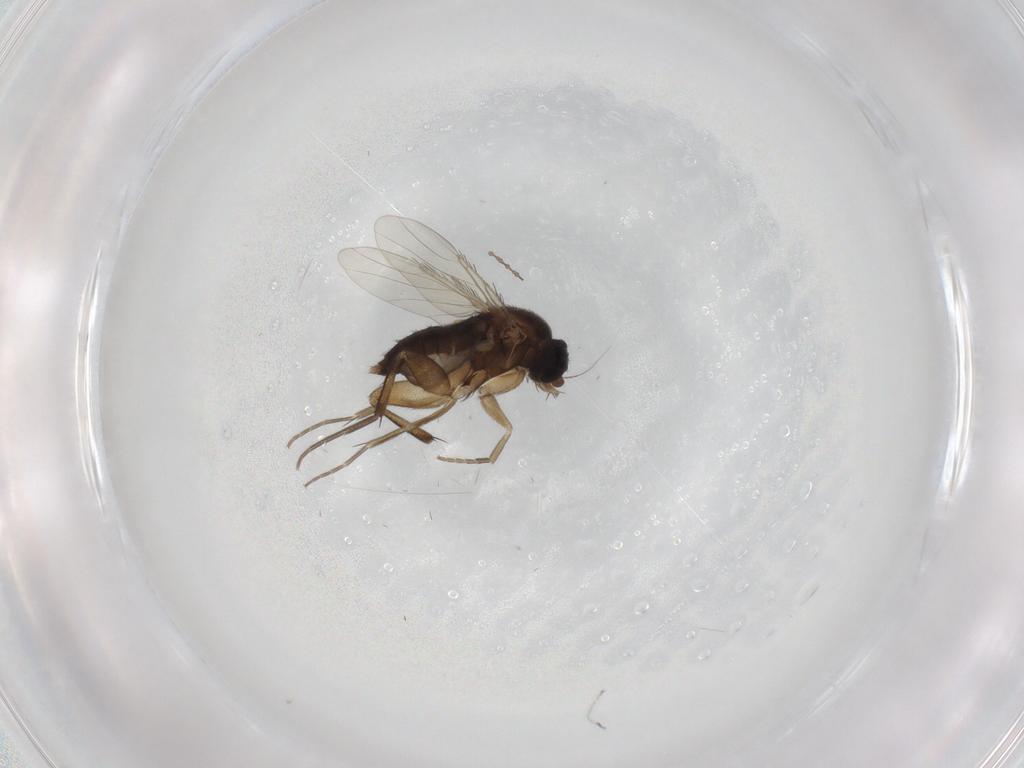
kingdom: Animalia
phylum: Arthropoda
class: Insecta
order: Diptera
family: Phoridae
